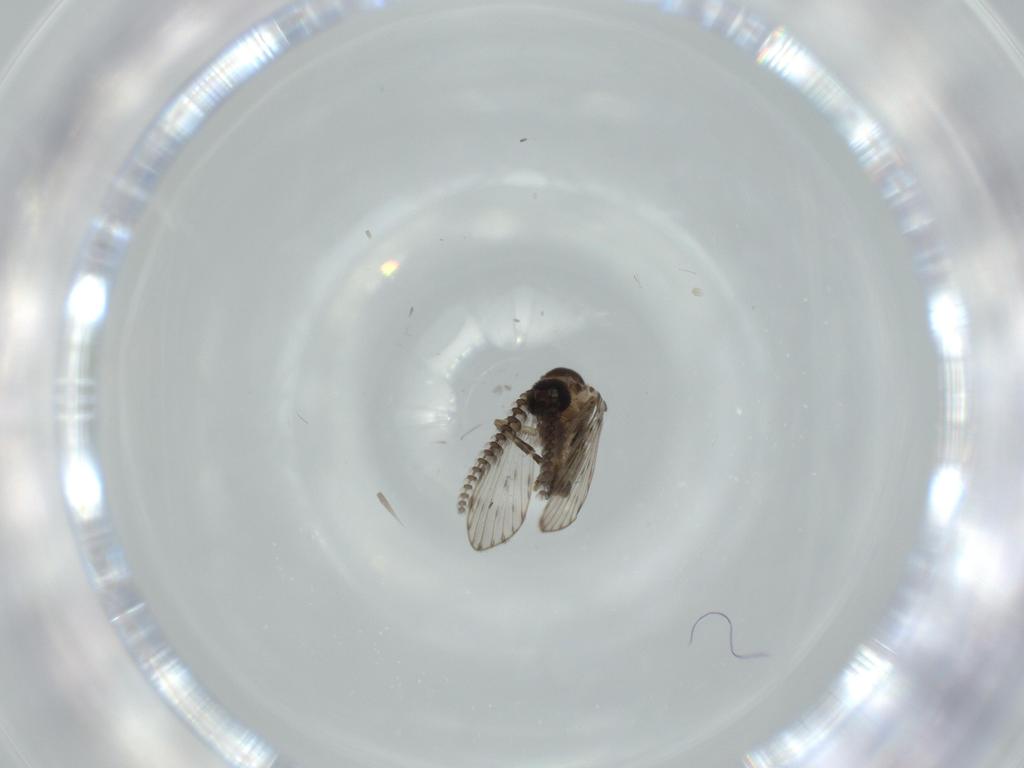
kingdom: Animalia
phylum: Arthropoda
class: Insecta
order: Diptera
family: Phoridae
